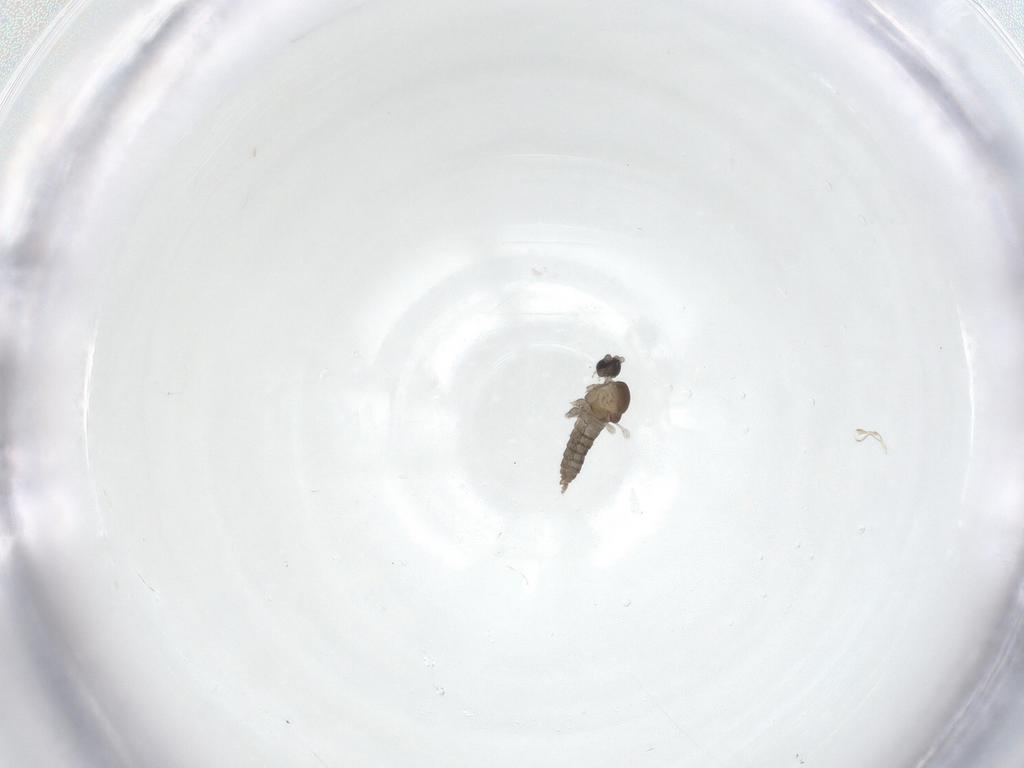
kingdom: Animalia
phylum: Arthropoda
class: Insecta
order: Diptera
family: Cecidomyiidae
